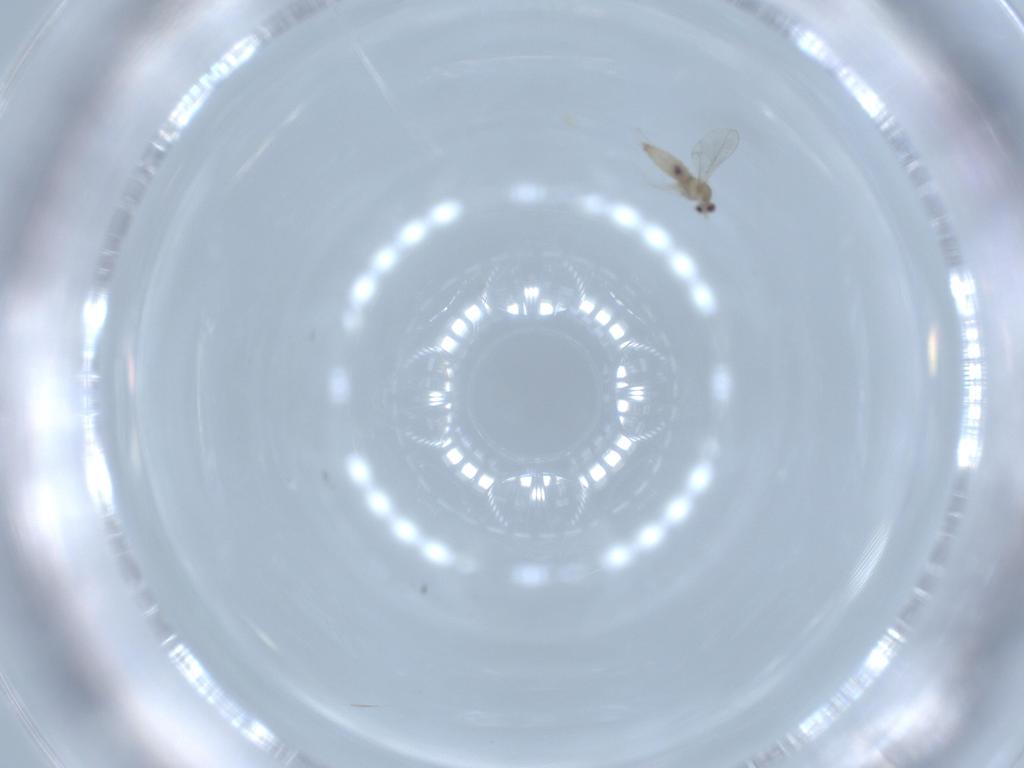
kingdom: Animalia
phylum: Arthropoda
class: Insecta
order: Diptera
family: Cecidomyiidae
